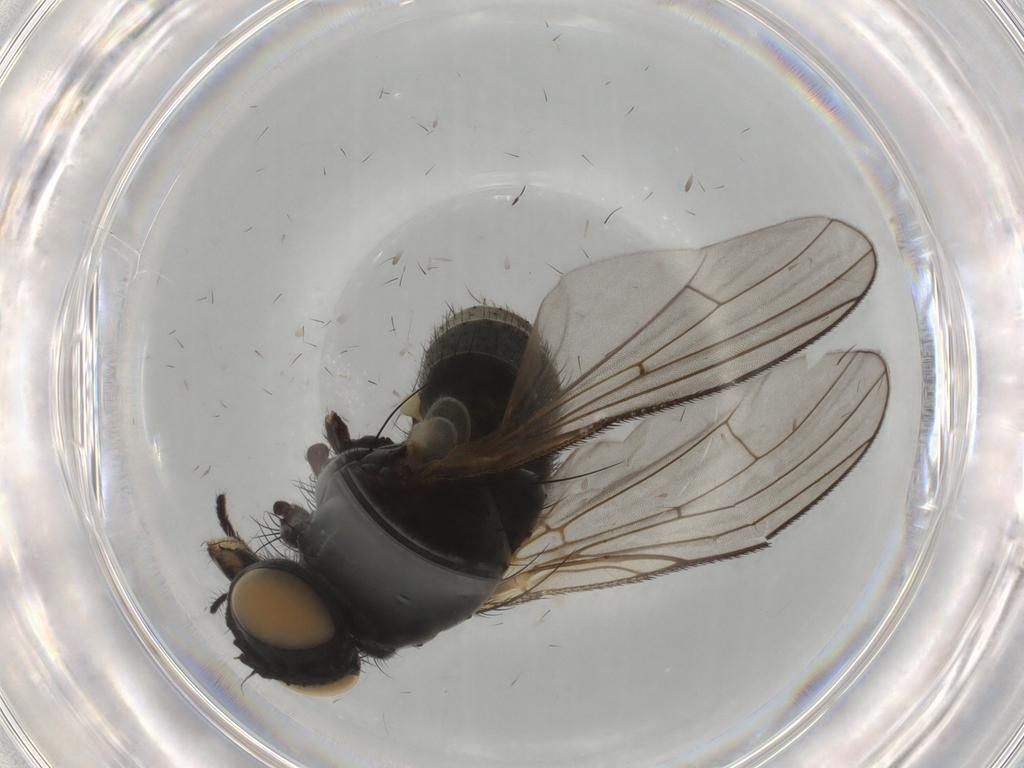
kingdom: Animalia
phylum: Arthropoda
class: Insecta
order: Diptera
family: Muscidae
